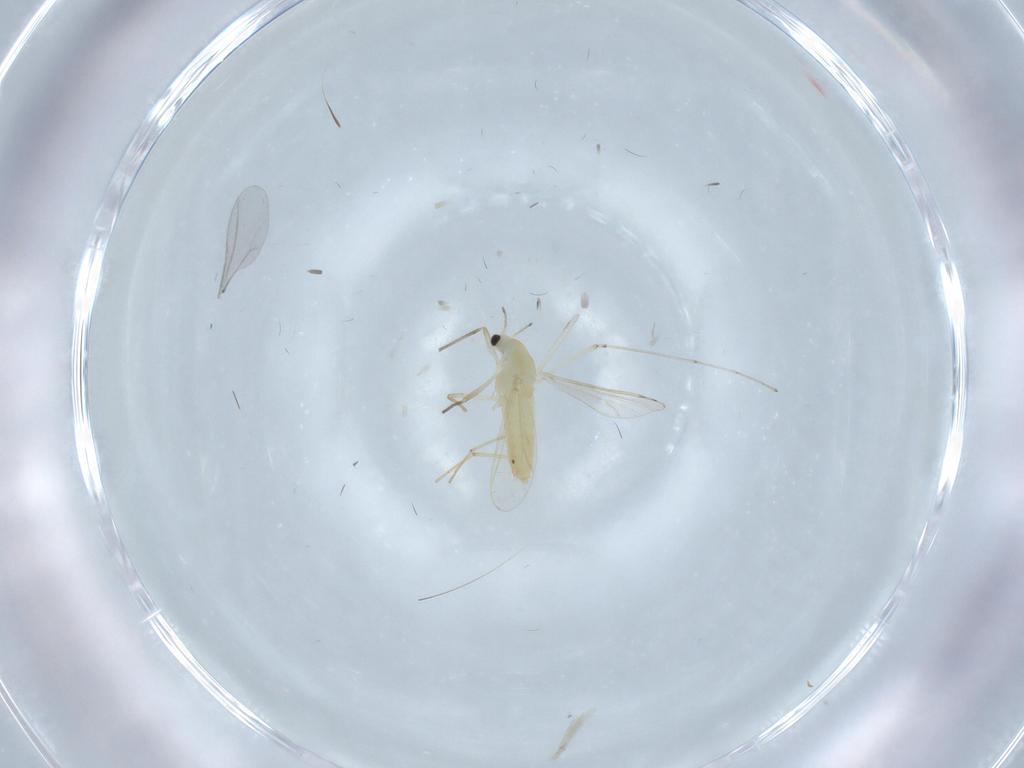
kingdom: Animalia
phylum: Arthropoda
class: Insecta
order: Diptera
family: Chironomidae
